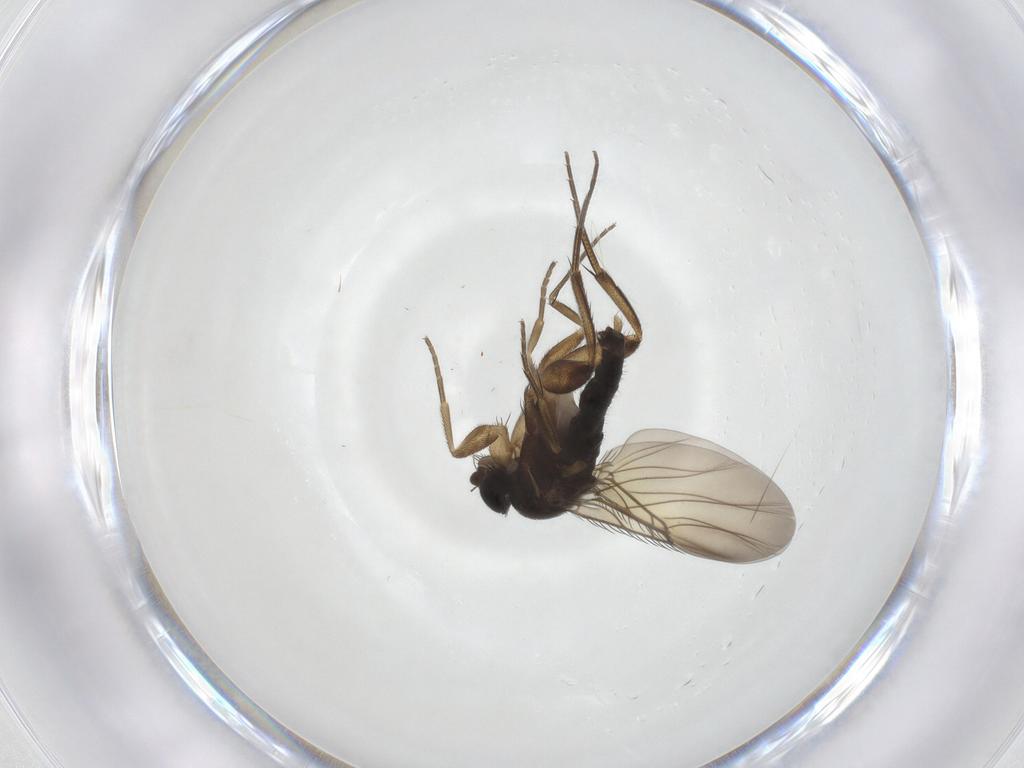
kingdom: Animalia
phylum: Arthropoda
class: Insecta
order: Diptera
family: Phoridae
